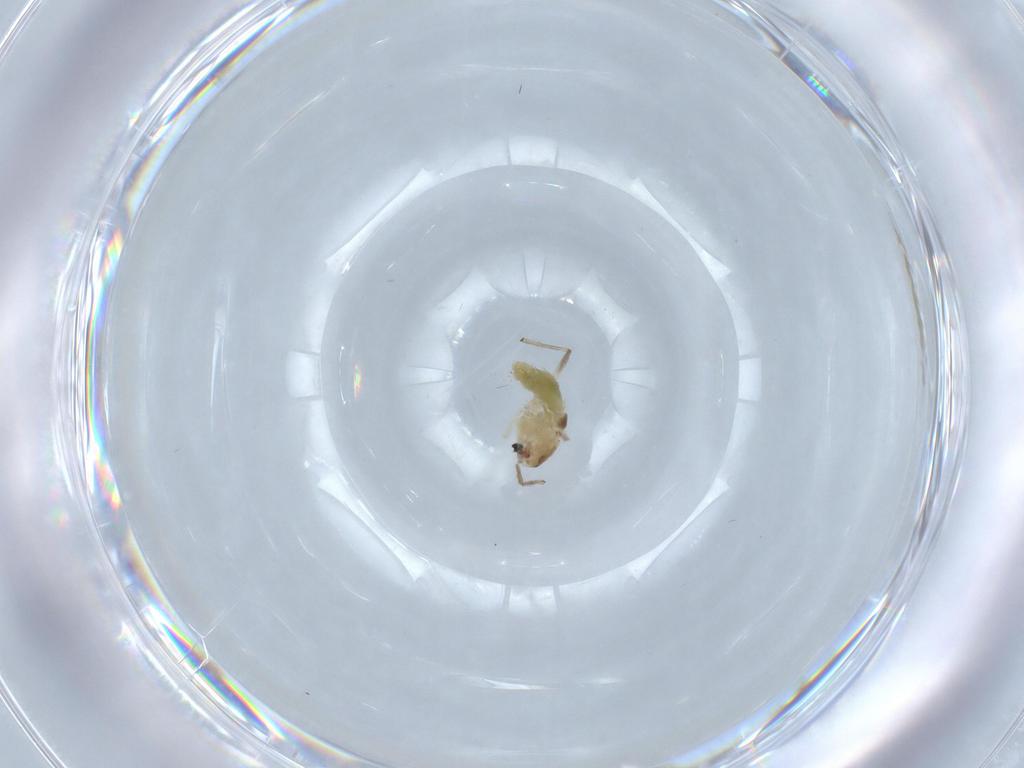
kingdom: Animalia
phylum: Arthropoda
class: Insecta
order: Diptera
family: Chironomidae
